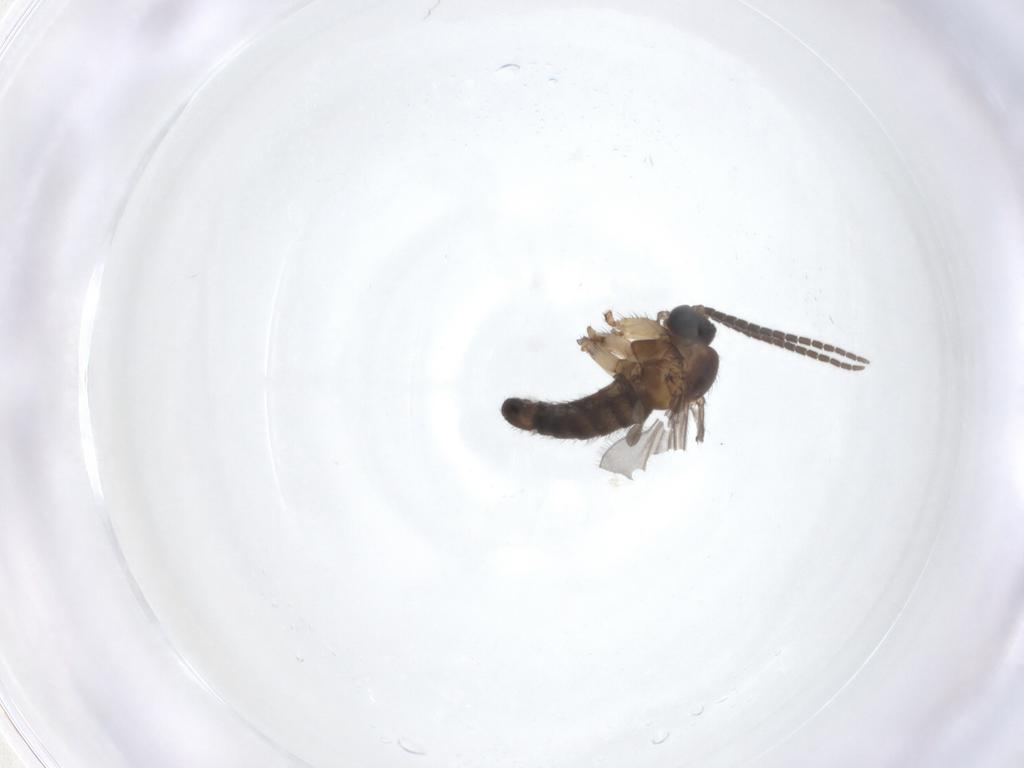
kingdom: Animalia
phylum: Arthropoda
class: Insecta
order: Diptera
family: Sciaridae
